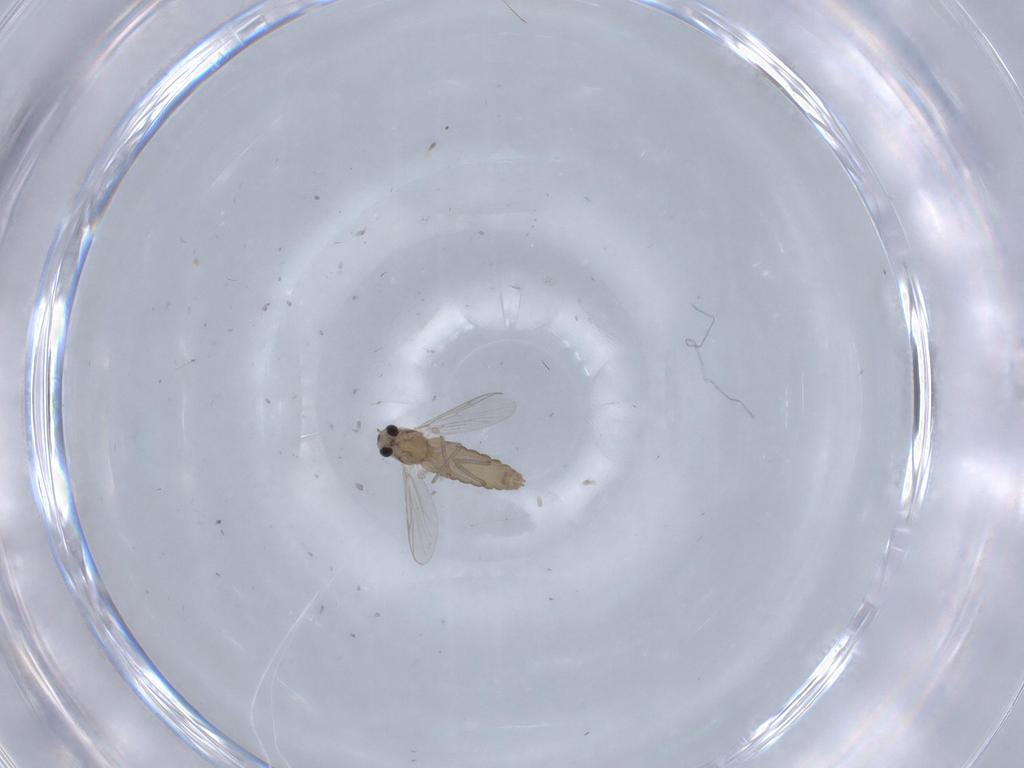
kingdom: Animalia
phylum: Arthropoda
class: Insecta
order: Diptera
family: Chironomidae
